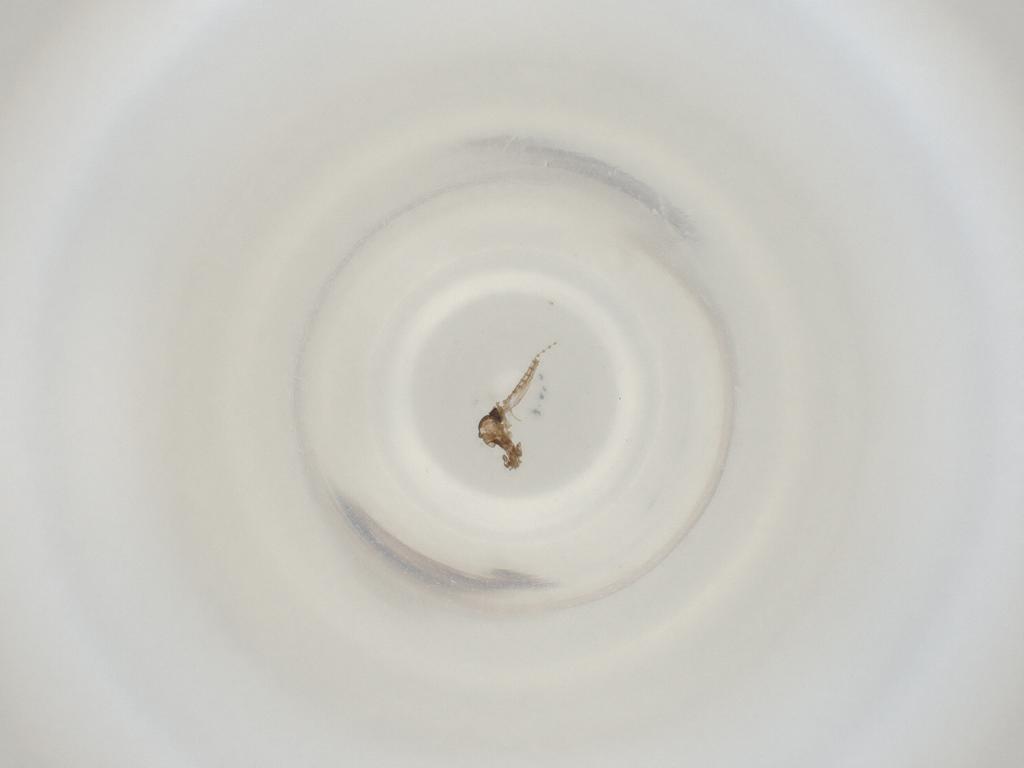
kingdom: Animalia
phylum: Arthropoda
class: Insecta
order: Diptera
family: Cecidomyiidae
